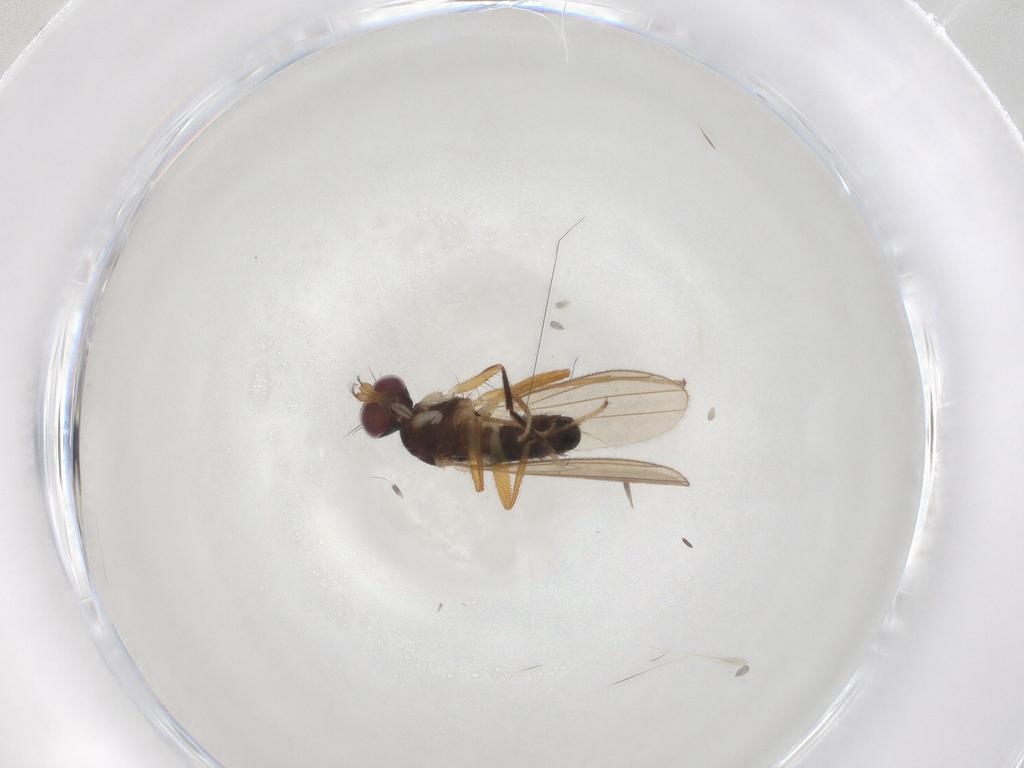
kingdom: Animalia
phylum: Arthropoda
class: Insecta
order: Diptera
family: Anthomyzidae
